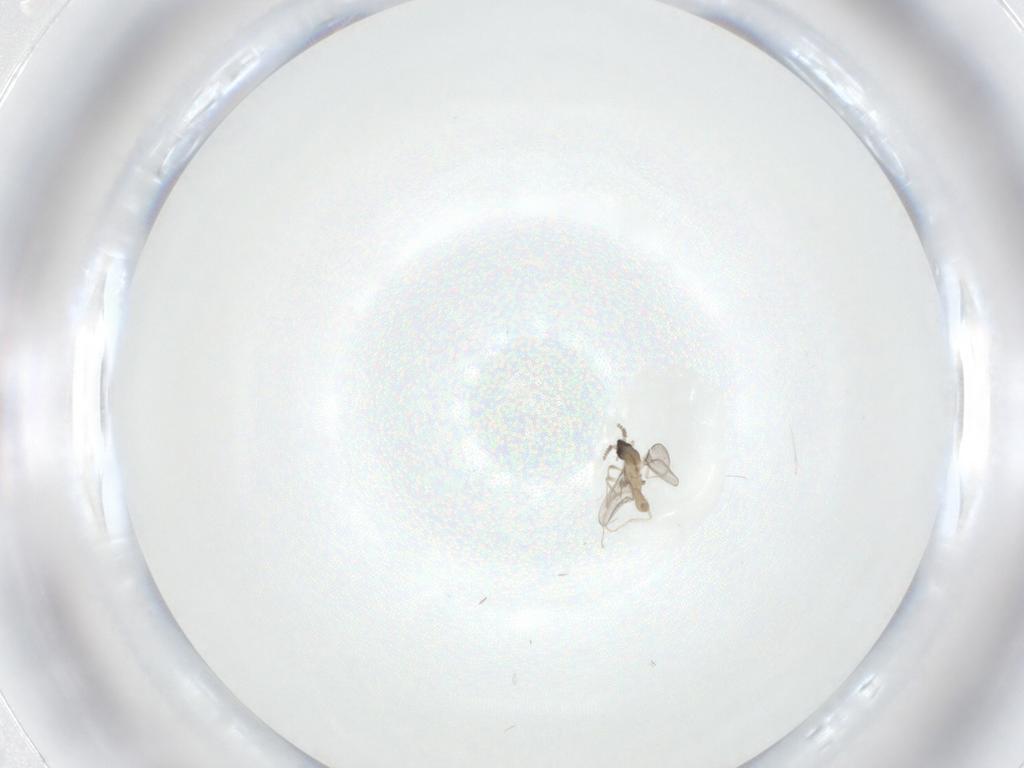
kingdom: Animalia
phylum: Arthropoda
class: Insecta
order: Diptera
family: Cecidomyiidae
